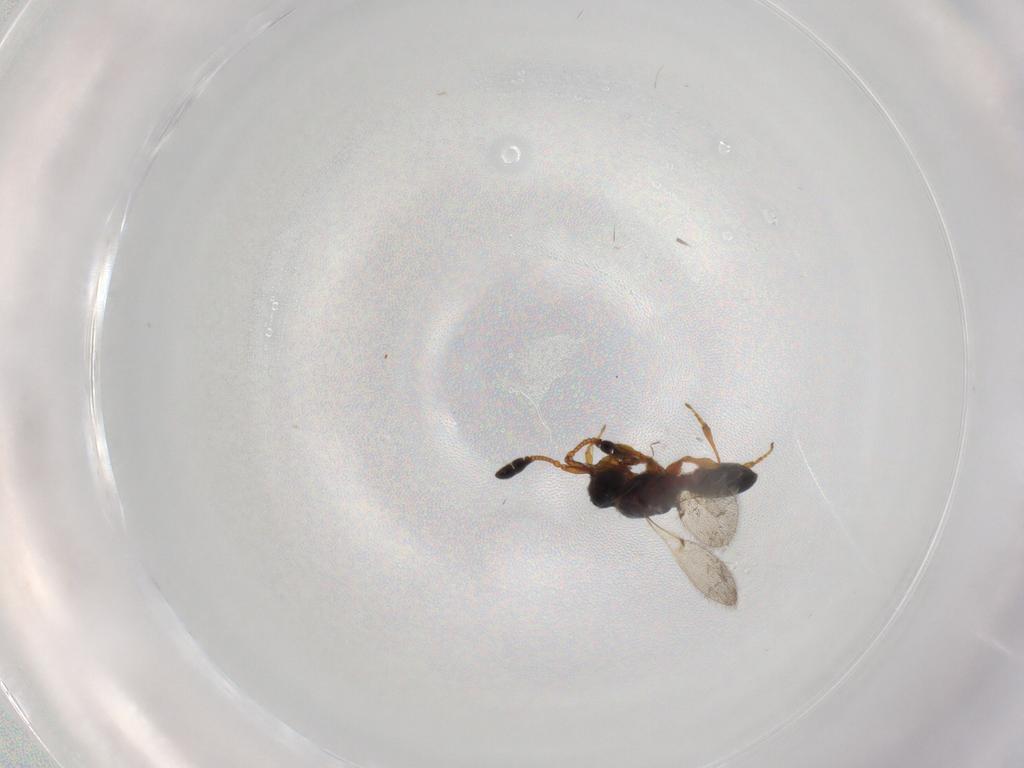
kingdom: Animalia
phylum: Arthropoda
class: Insecta
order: Hymenoptera
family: Diapriidae
